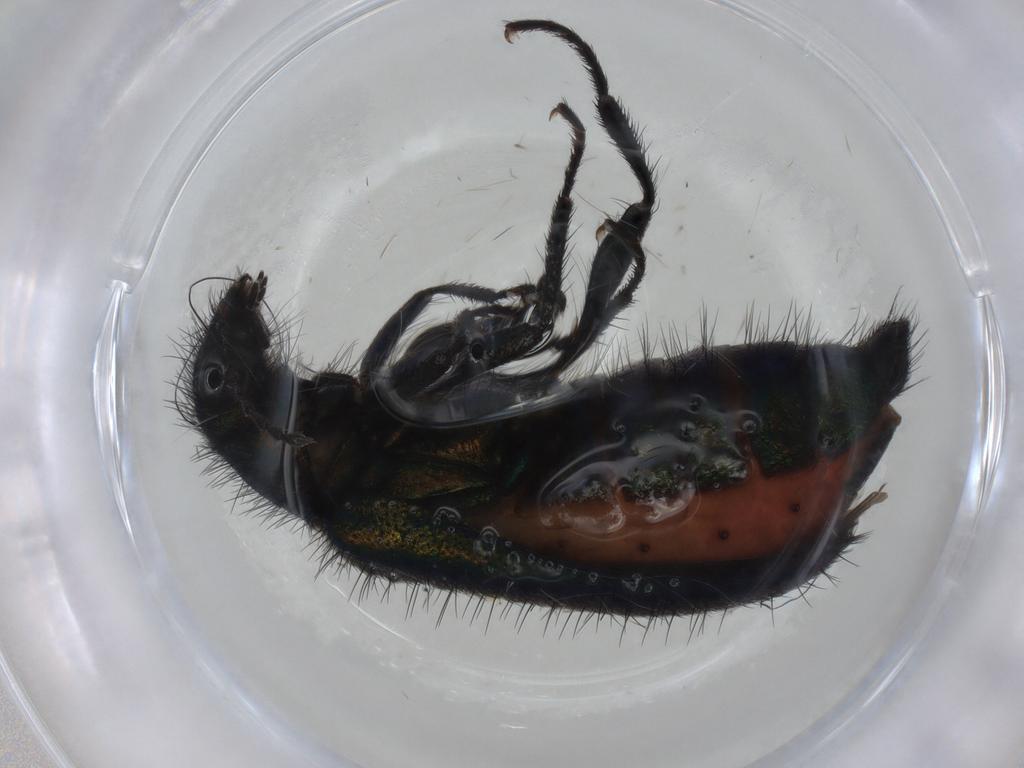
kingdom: Animalia
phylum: Arthropoda
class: Insecta
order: Coleoptera
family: Melyridae
